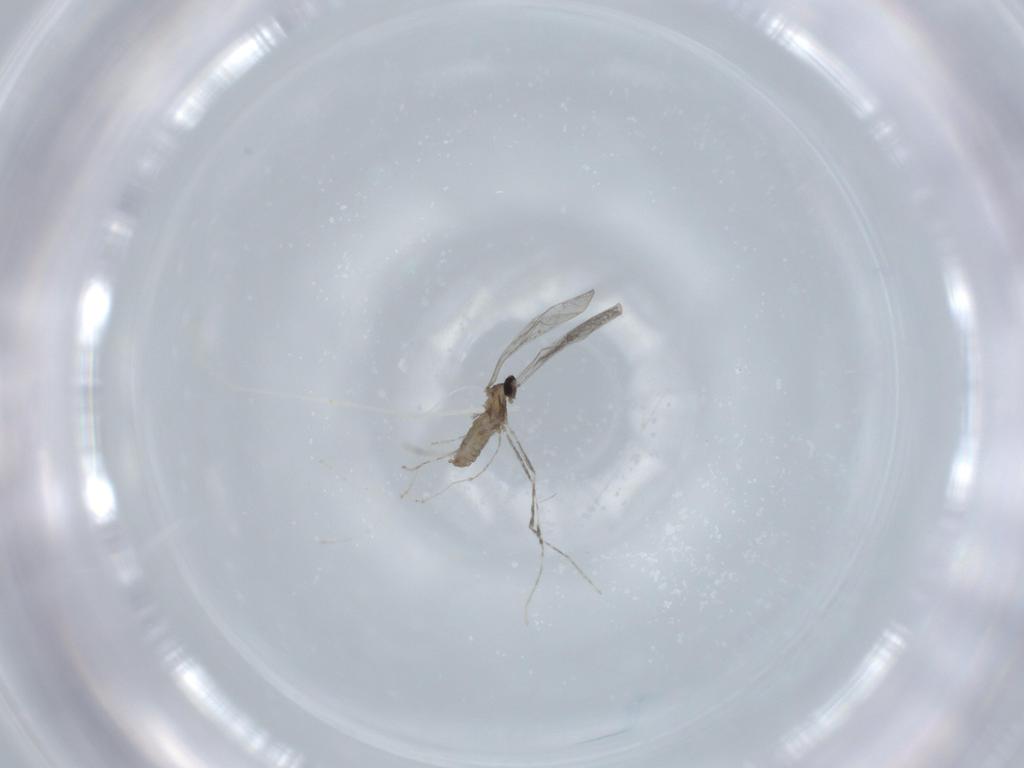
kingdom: Animalia
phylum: Arthropoda
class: Insecta
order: Diptera
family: Cecidomyiidae
